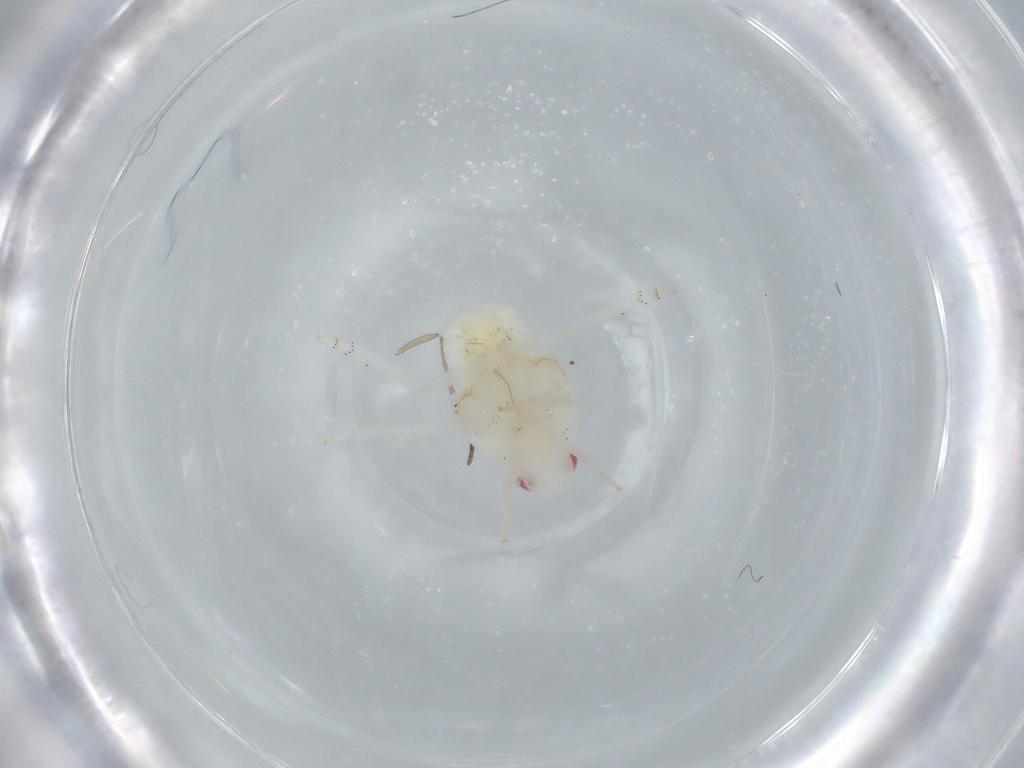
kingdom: Animalia
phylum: Arthropoda
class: Insecta
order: Hemiptera
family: Flatidae
